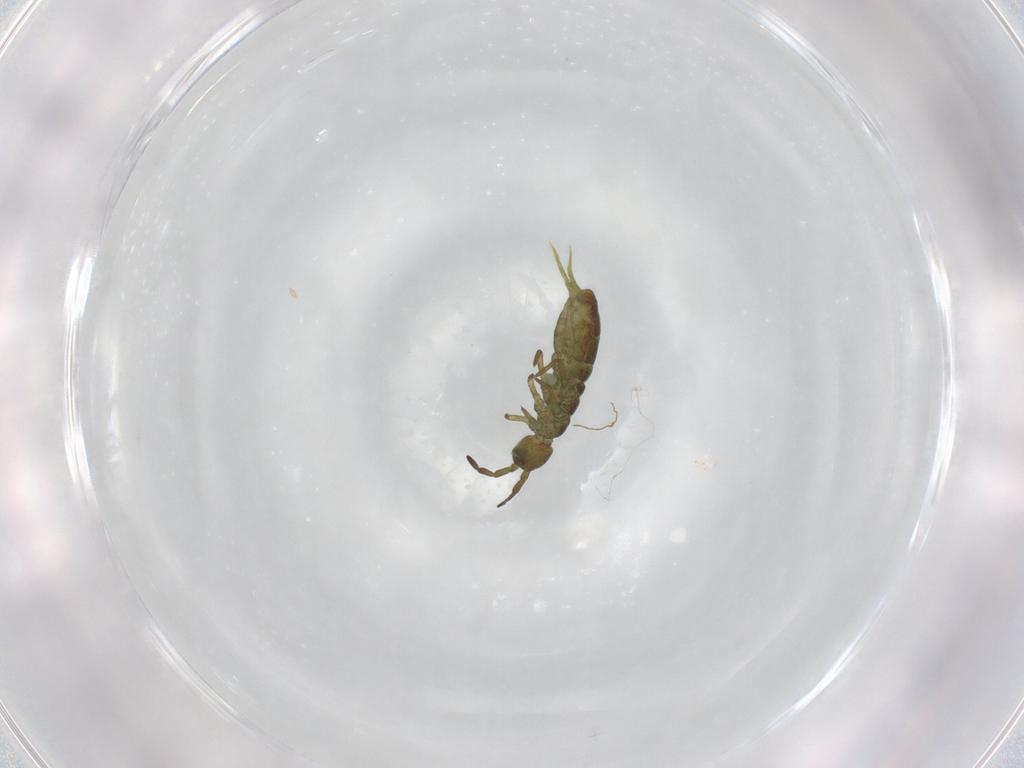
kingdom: Animalia
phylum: Arthropoda
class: Collembola
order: Entomobryomorpha
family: Isotomidae
